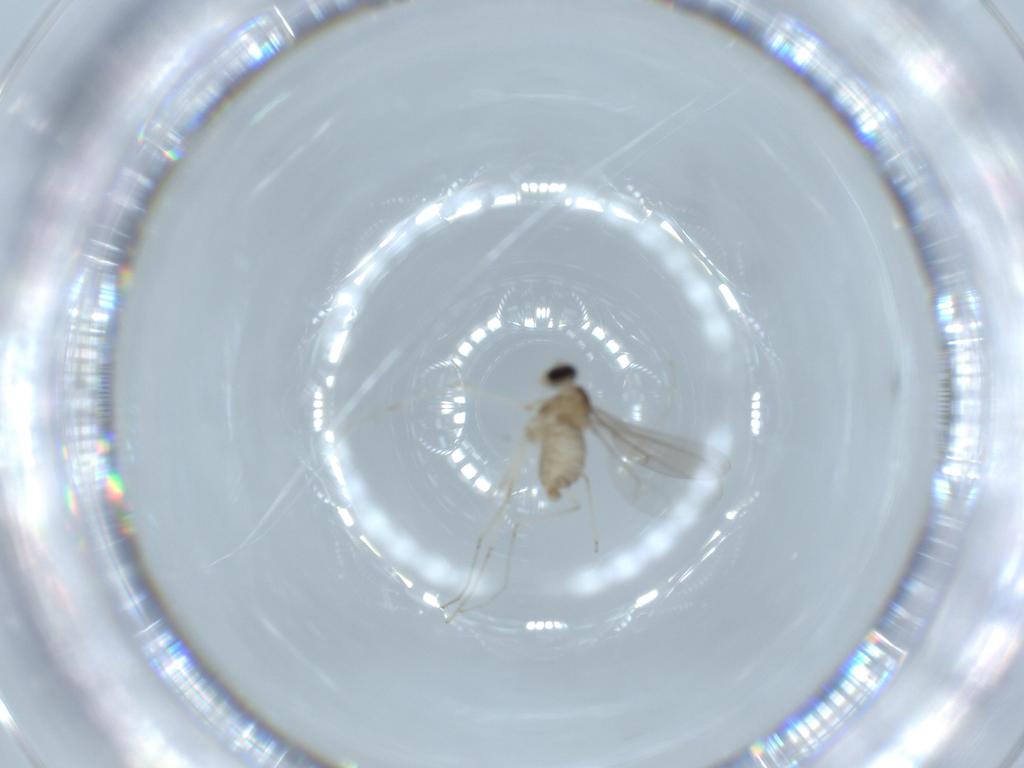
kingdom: Animalia
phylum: Arthropoda
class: Insecta
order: Diptera
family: Cecidomyiidae
